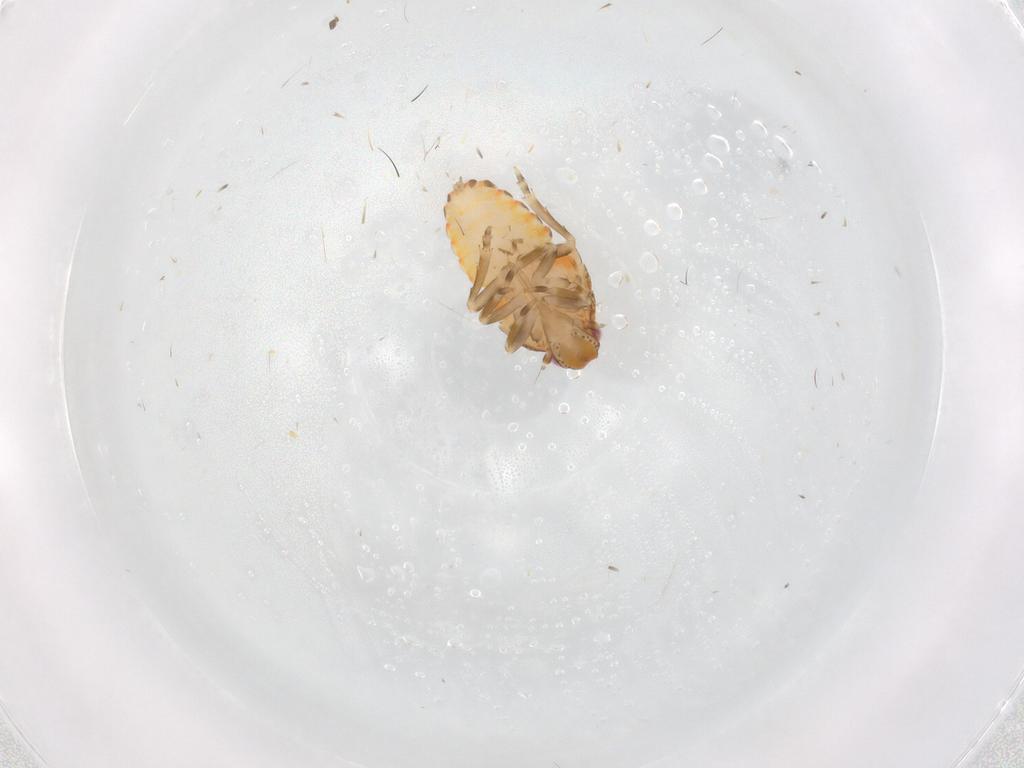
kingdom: Animalia
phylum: Arthropoda
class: Insecta
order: Hemiptera
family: Flatidae
